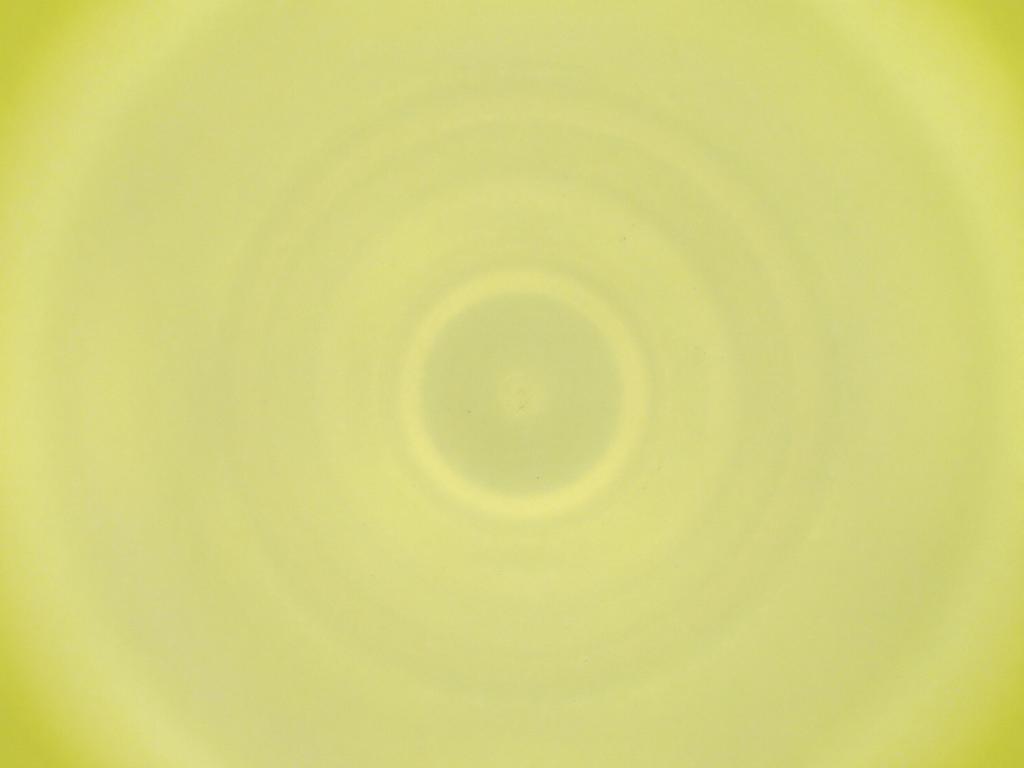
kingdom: Animalia
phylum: Arthropoda
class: Insecta
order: Diptera
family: Cecidomyiidae
